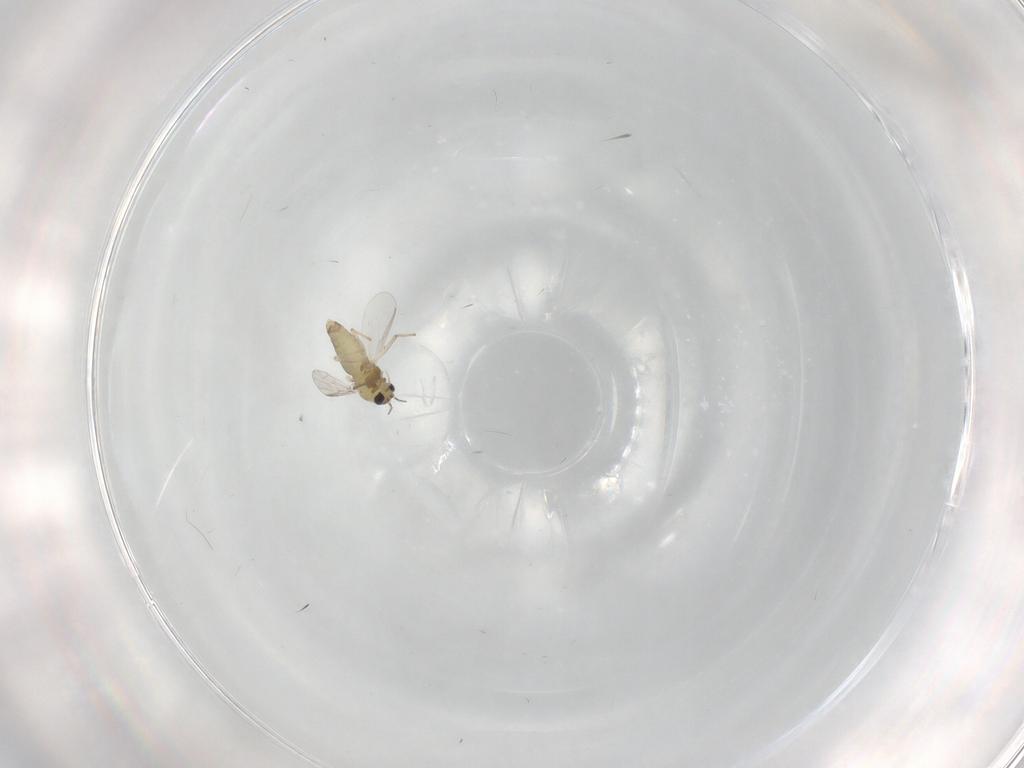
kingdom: Animalia
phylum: Arthropoda
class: Insecta
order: Diptera
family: Chironomidae
